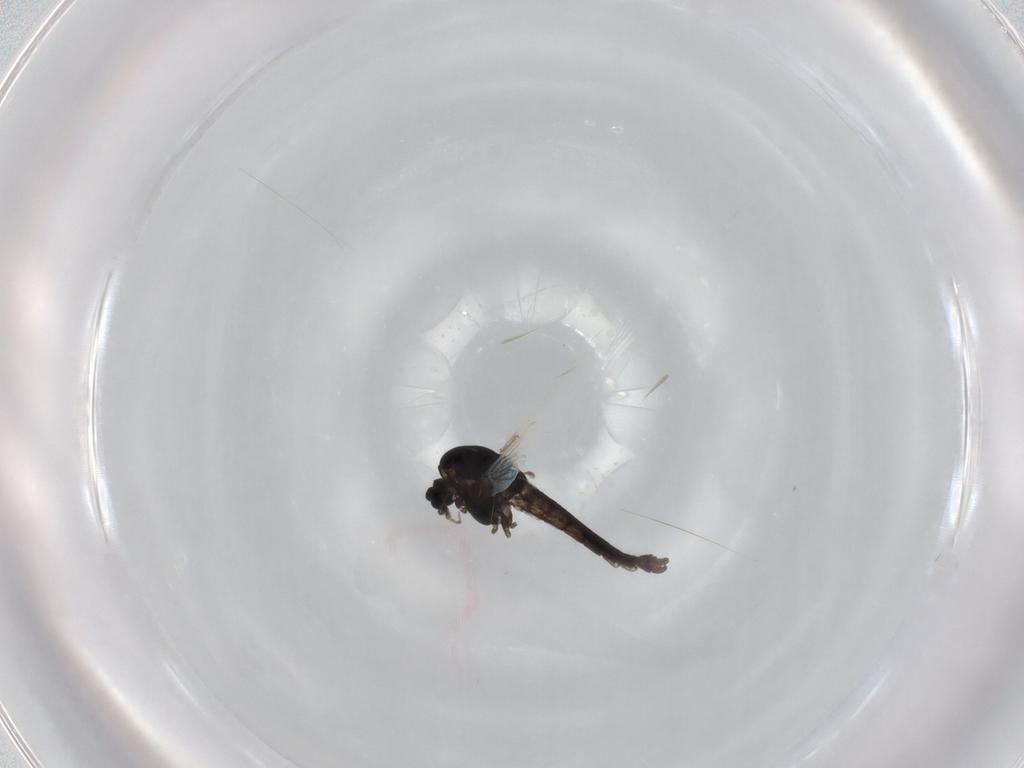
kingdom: Animalia
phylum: Arthropoda
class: Insecta
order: Diptera
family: Chironomidae
